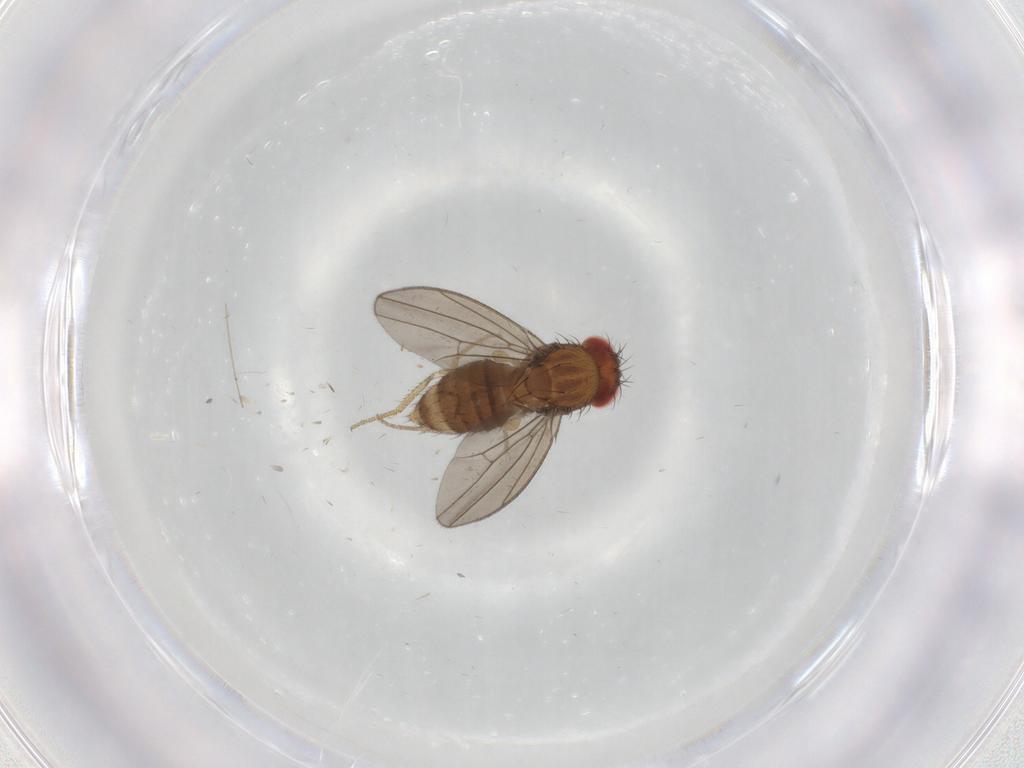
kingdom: Animalia
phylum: Arthropoda
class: Insecta
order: Diptera
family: Drosophilidae
